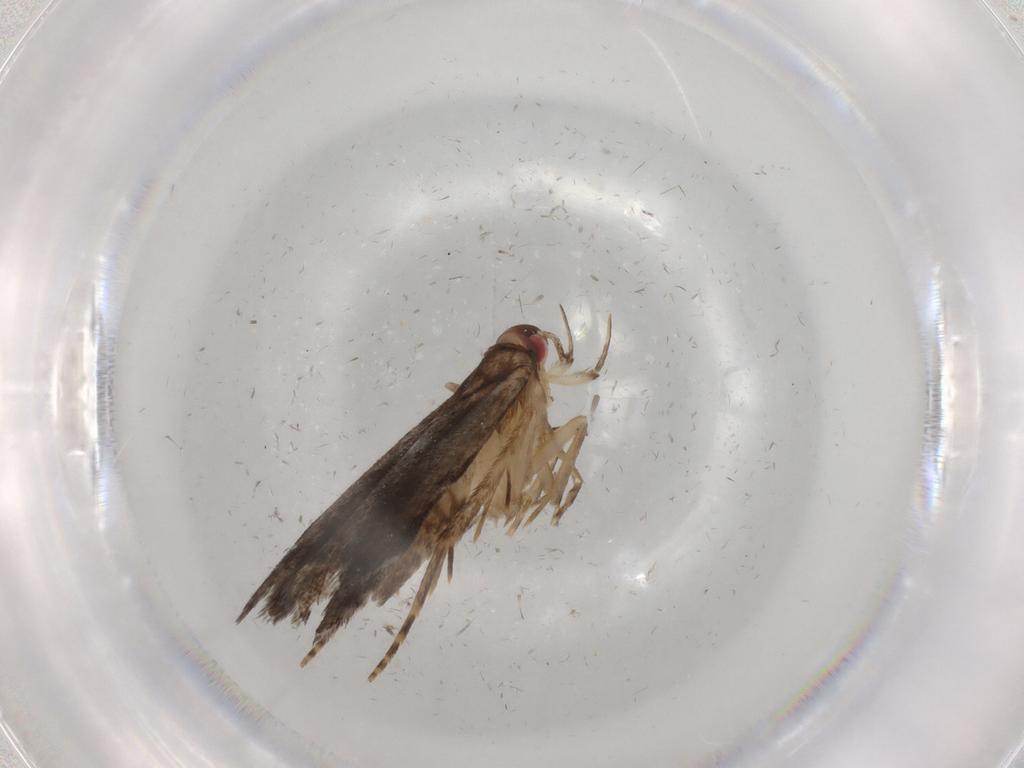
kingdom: Animalia
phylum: Arthropoda
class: Insecta
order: Lepidoptera
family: Gelechiidae
